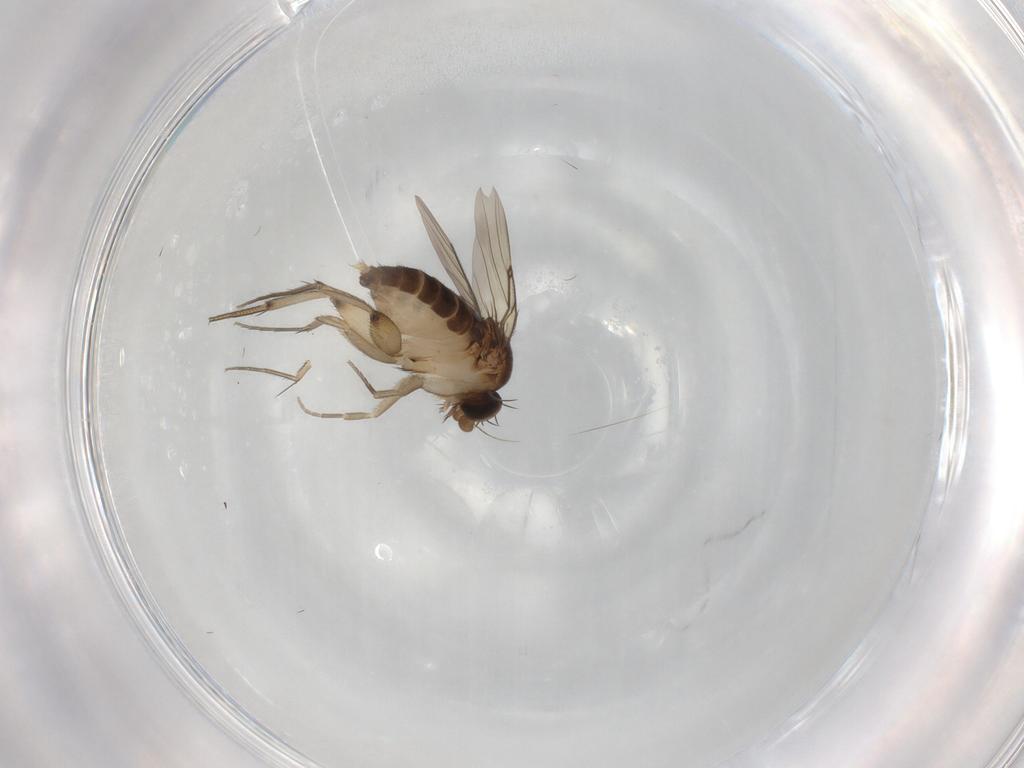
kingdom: Animalia
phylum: Arthropoda
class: Insecta
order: Diptera
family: Phoridae
